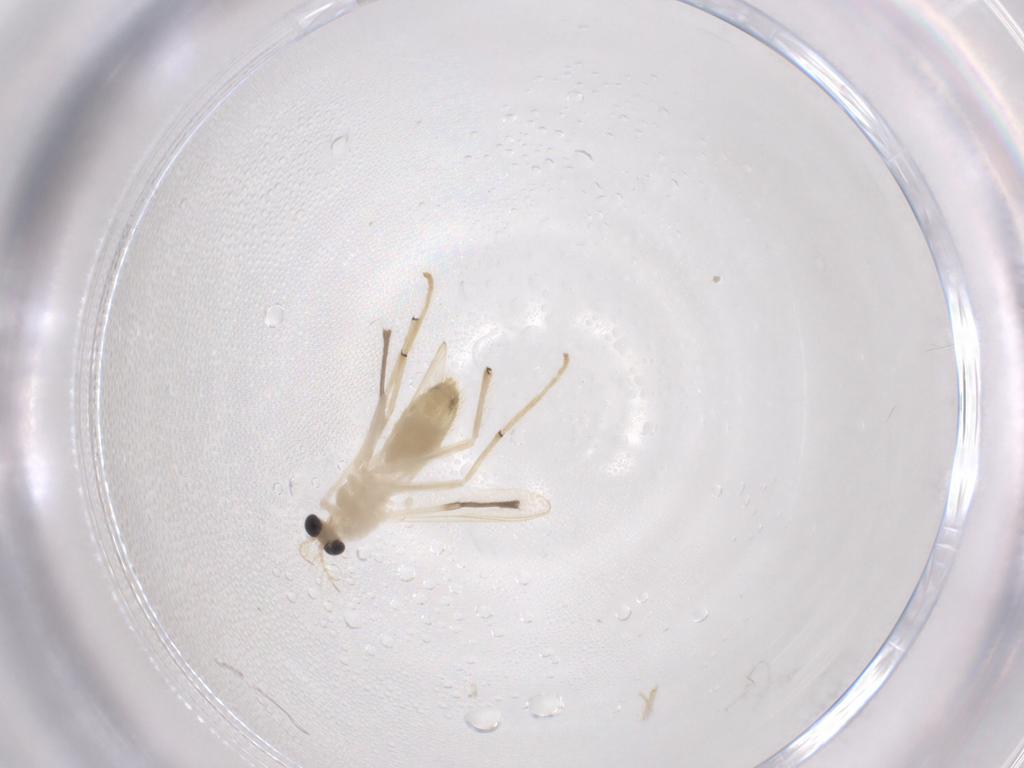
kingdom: Animalia
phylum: Arthropoda
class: Insecta
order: Diptera
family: Chironomidae
